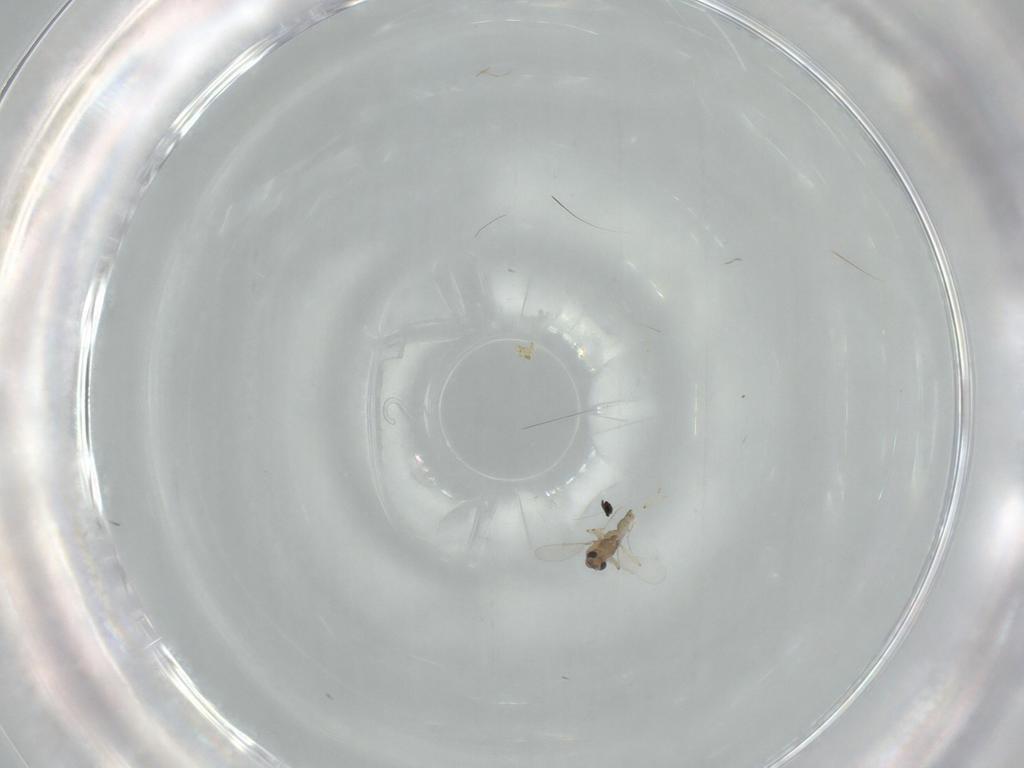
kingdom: Animalia
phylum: Arthropoda
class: Insecta
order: Diptera
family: Chironomidae
